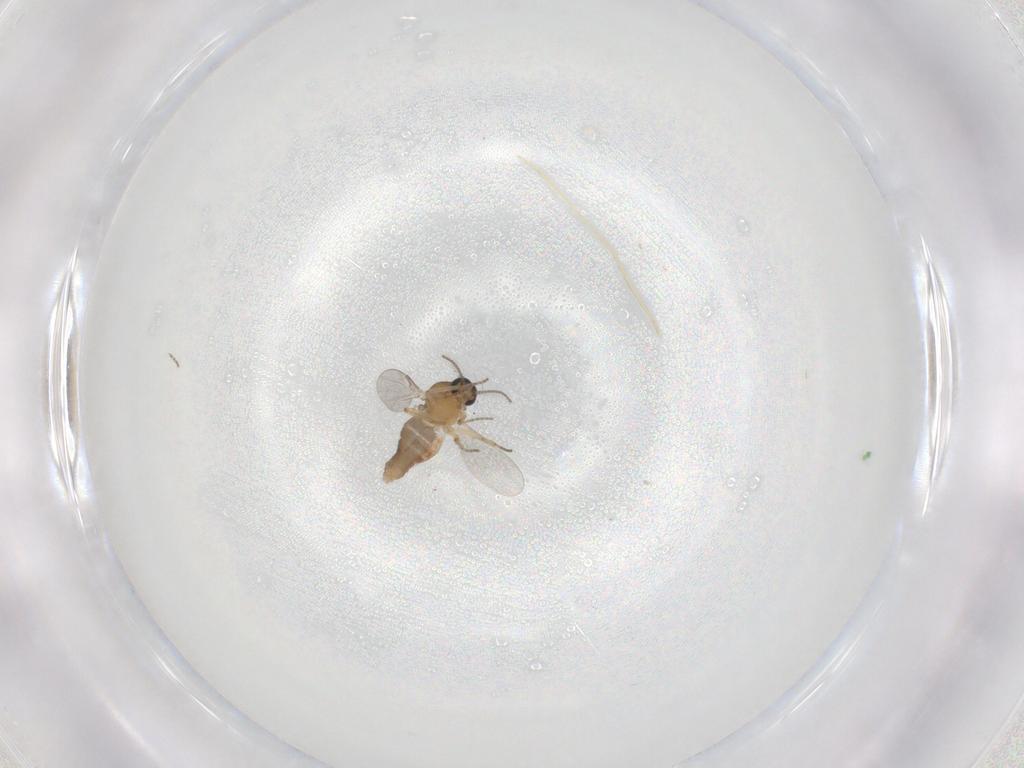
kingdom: Animalia
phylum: Arthropoda
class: Insecta
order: Diptera
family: Ceratopogonidae
